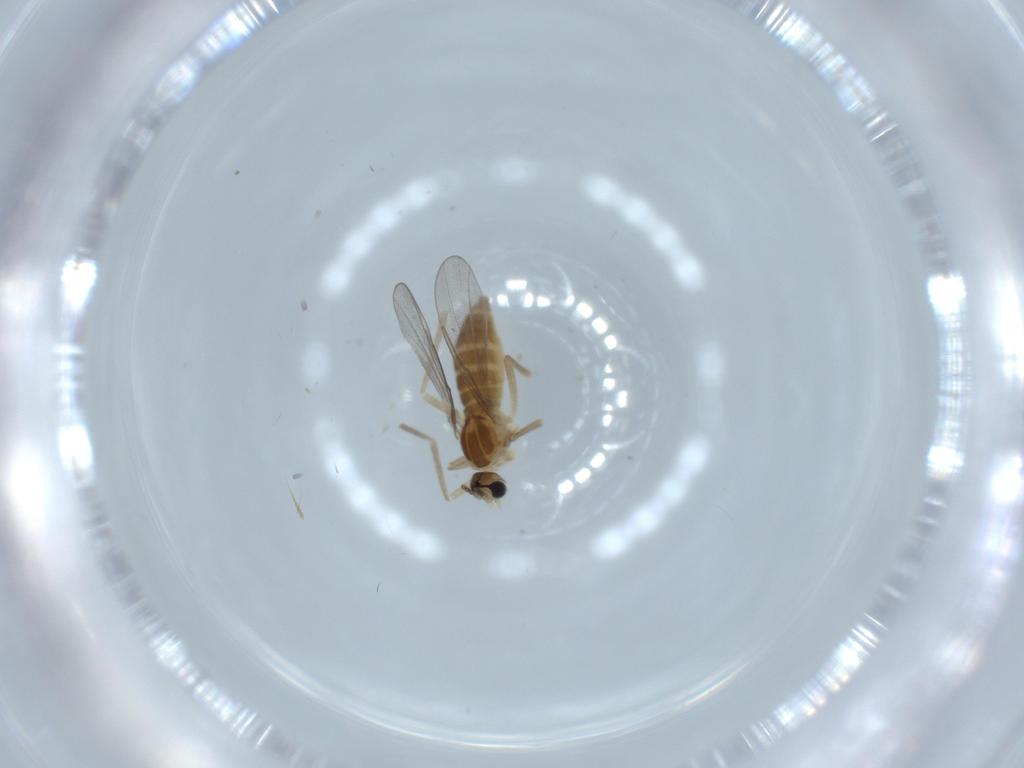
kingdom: Animalia
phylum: Arthropoda
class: Insecta
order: Diptera
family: Cecidomyiidae
